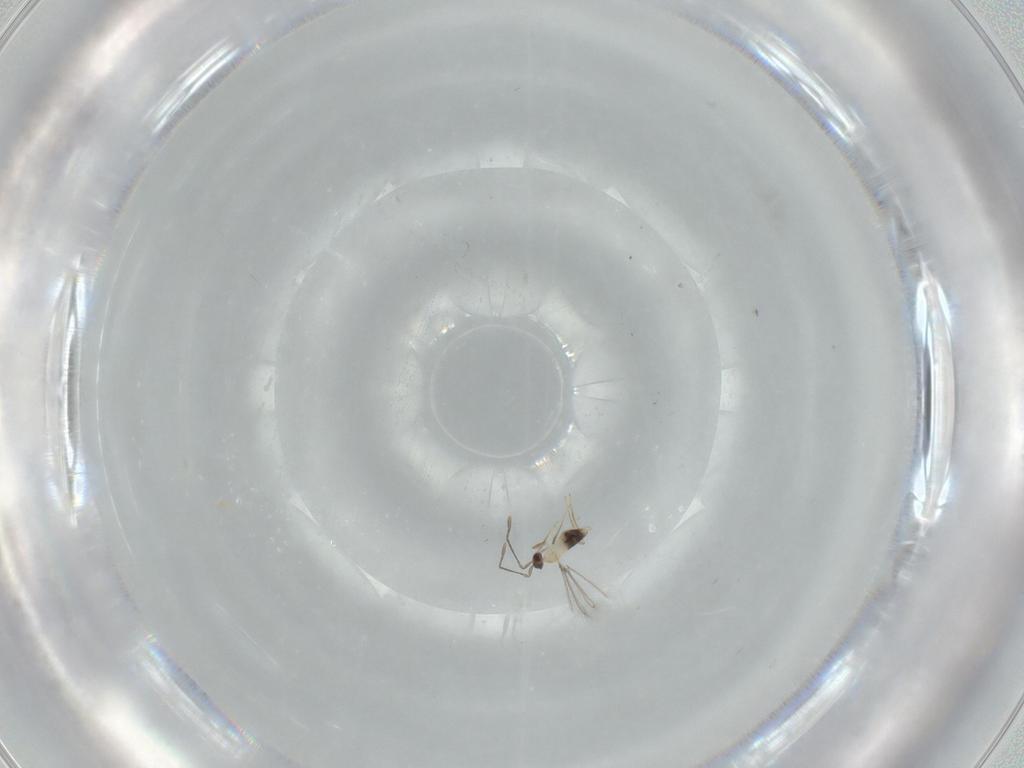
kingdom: Animalia
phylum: Arthropoda
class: Insecta
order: Hymenoptera
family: Mymaridae
